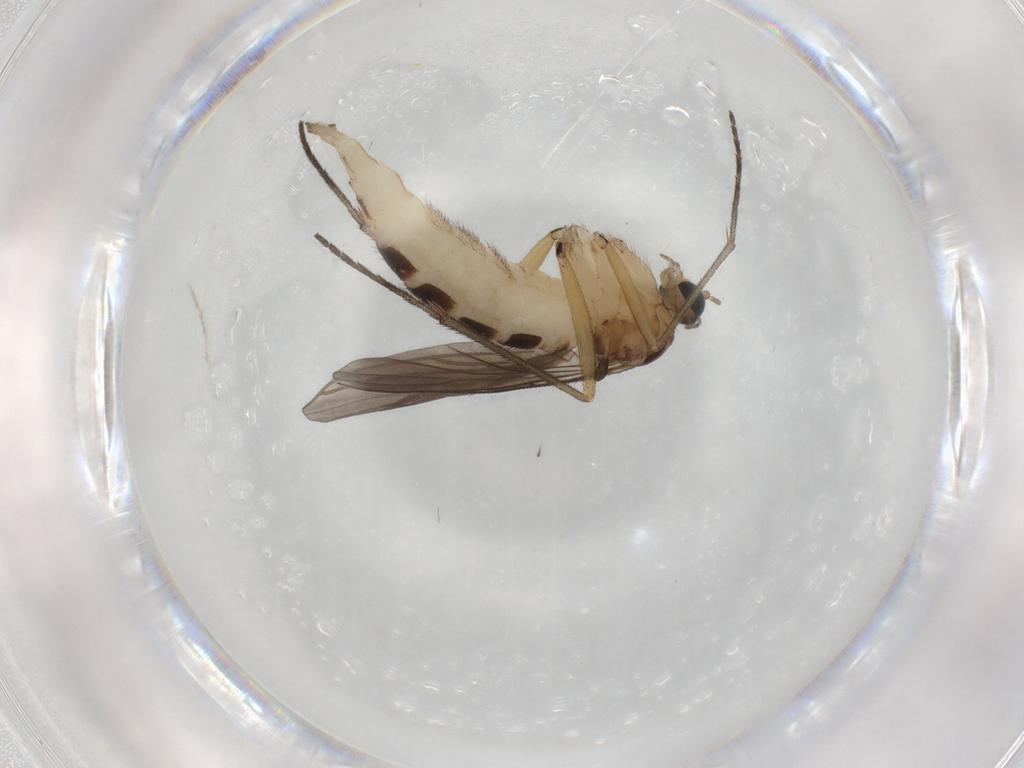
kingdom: Animalia
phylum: Arthropoda
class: Insecta
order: Diptera
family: Sciaridae
